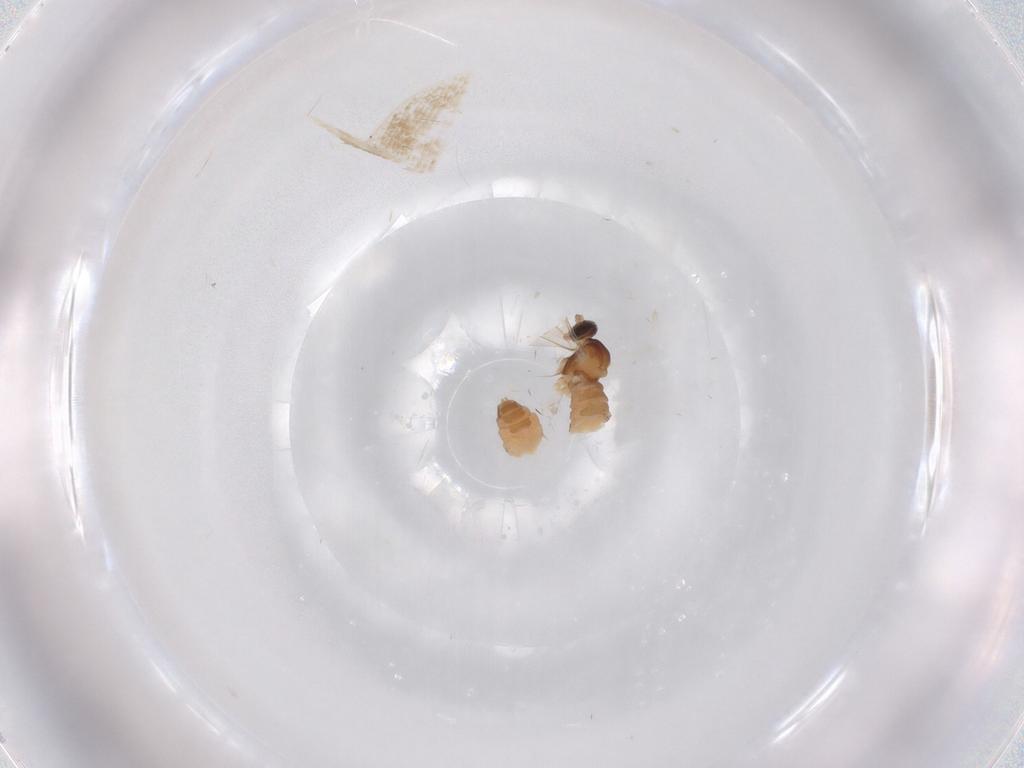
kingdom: Animalia
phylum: Arthropoda
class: Insecta
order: Diptera
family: Cecidomyiidae
